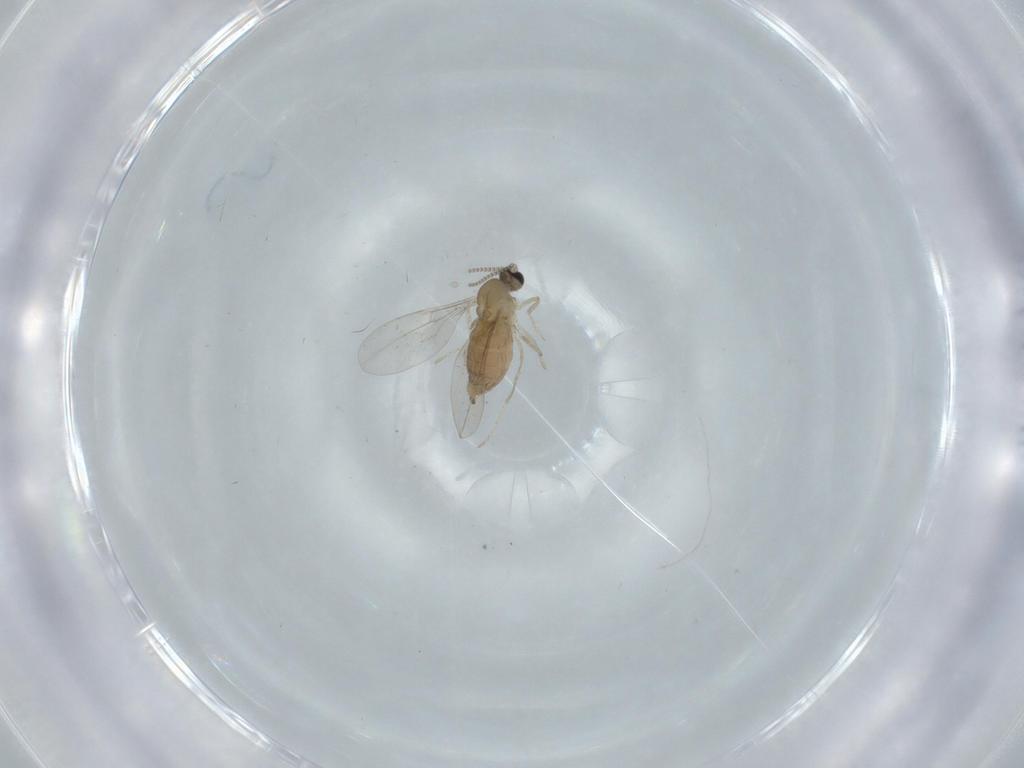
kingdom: Animalia
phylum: Arthropoda
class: Insecta
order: Diptera
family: Cecidomyiidae
